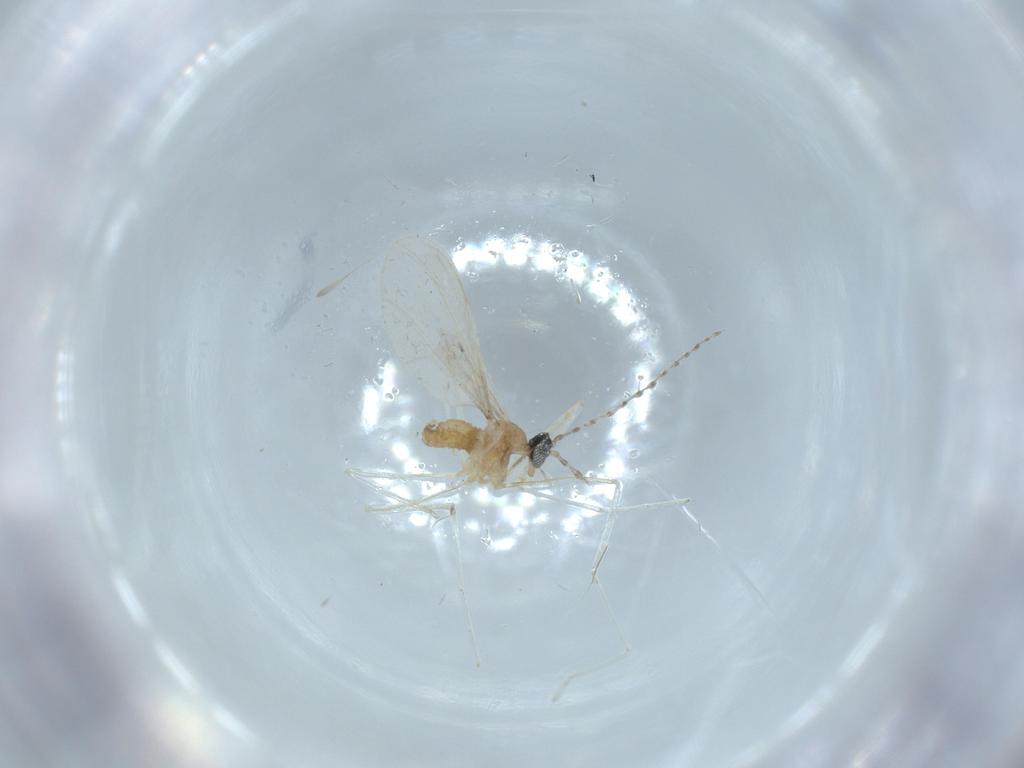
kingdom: Animalia
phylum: Arthropoda
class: Insecta
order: Diptera
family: Cecidomyiidae
